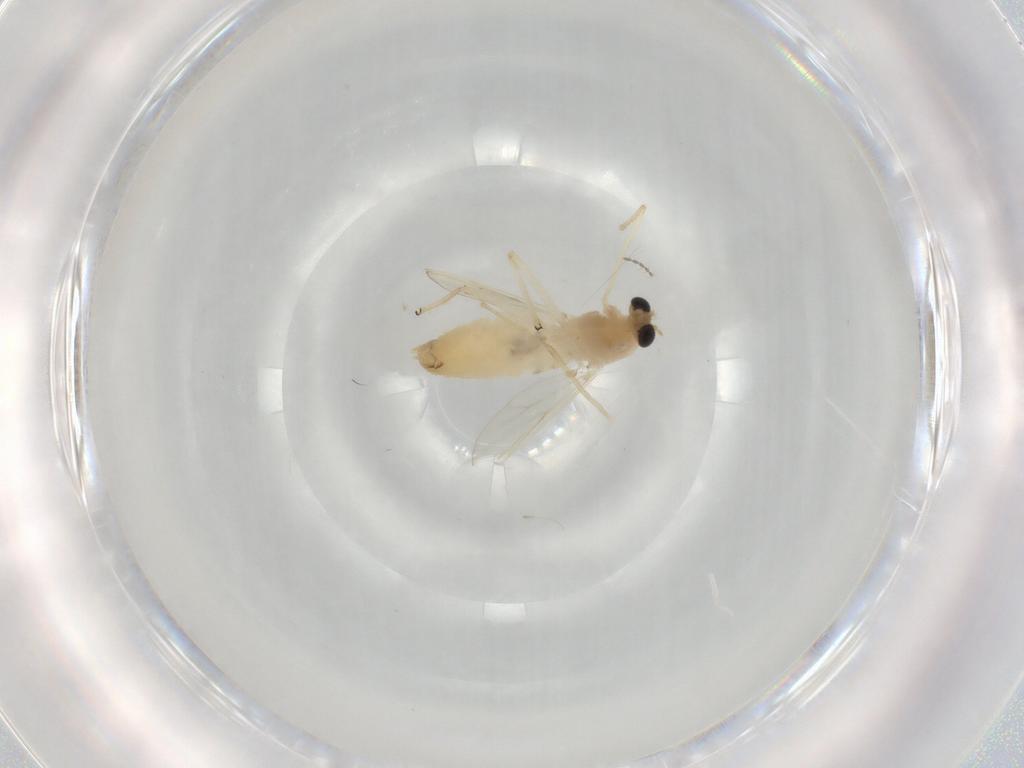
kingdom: Animalia
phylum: Arthropoda
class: Insecta
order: Diptera
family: Chironomidae
